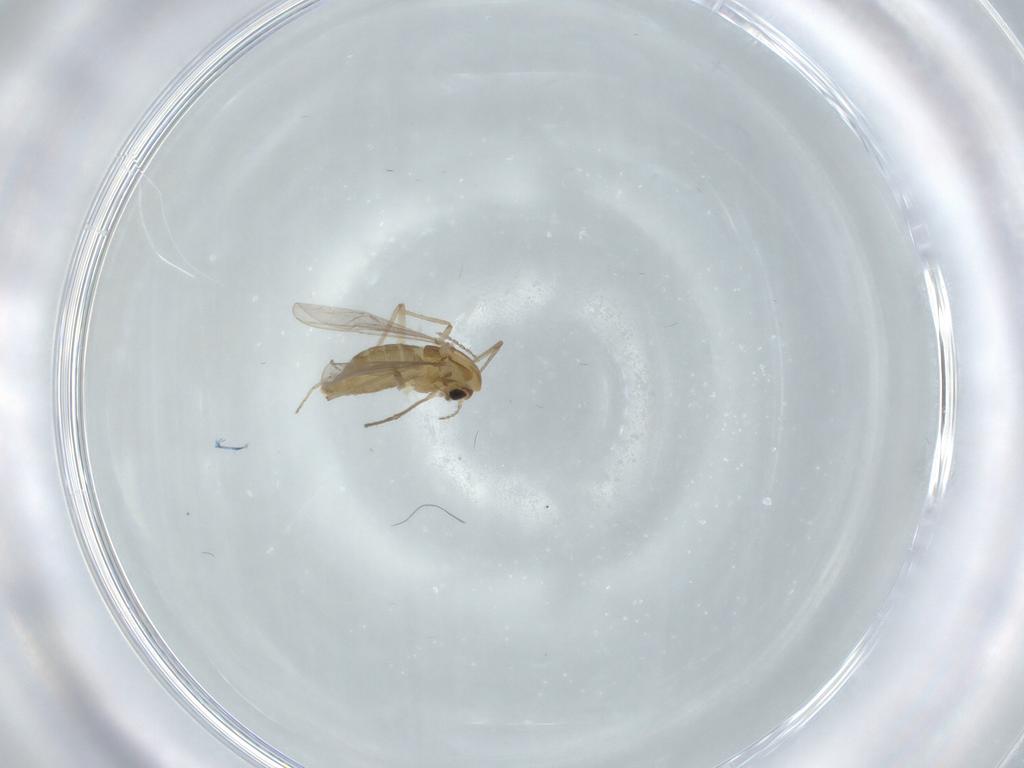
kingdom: Animalia
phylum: Arthropoda
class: Insecta
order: Diptera
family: Chironomidae
